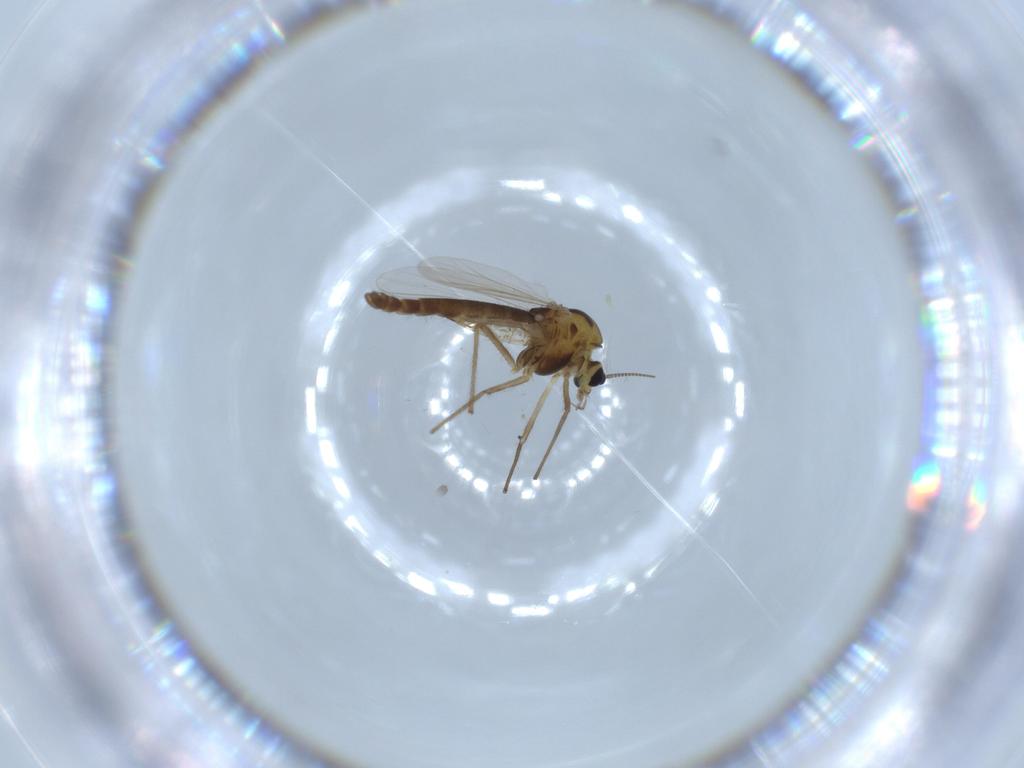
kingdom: Animalia
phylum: Arthropoda
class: Insecta
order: Diptera
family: Chironomidae
